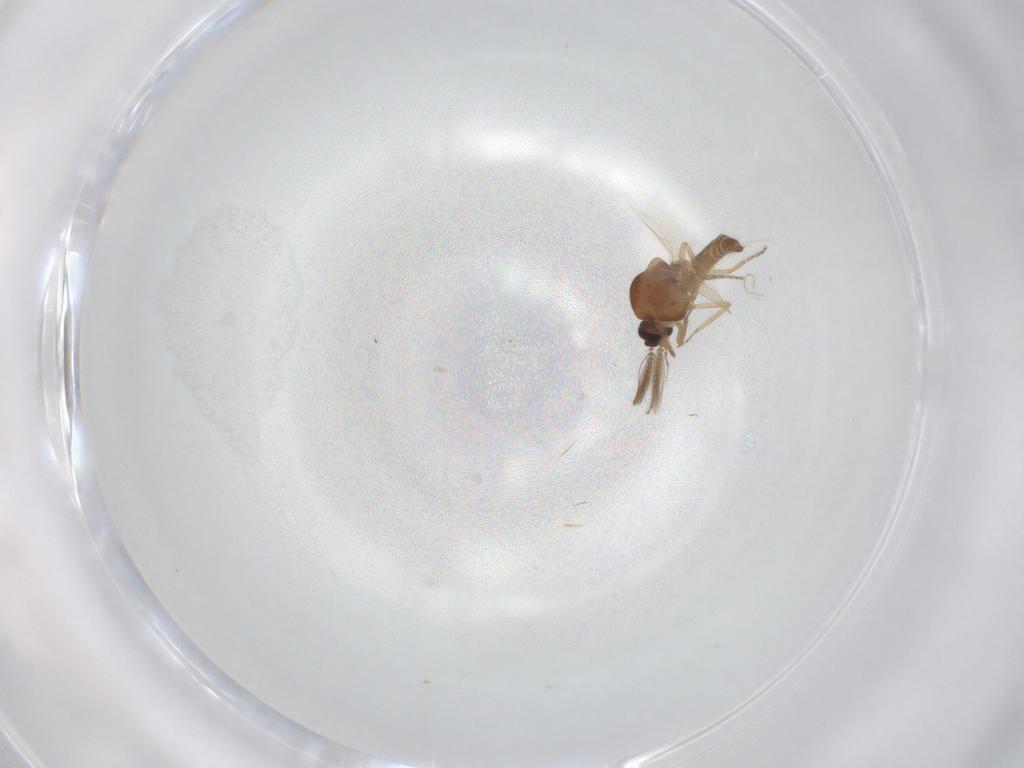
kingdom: Animalia
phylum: Arthropoda
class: Insecta
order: Diptera
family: Ceratopogonidae
